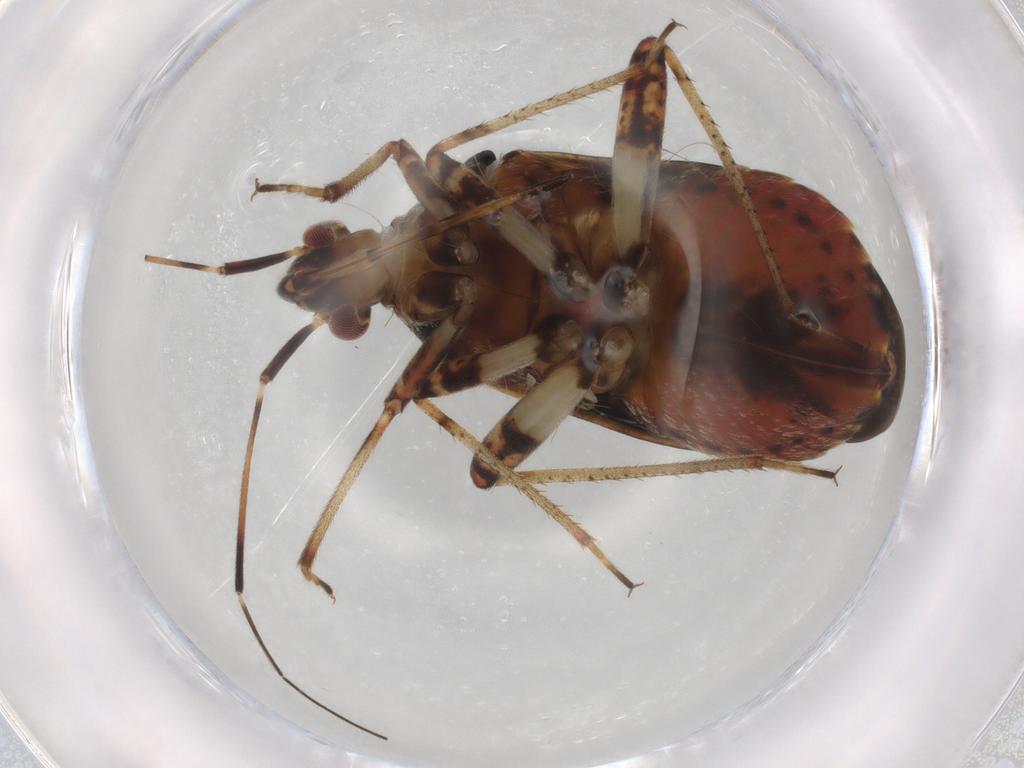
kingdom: Animalia
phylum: Arthropoda
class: Insecta
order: Hemiptera
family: Miridae
